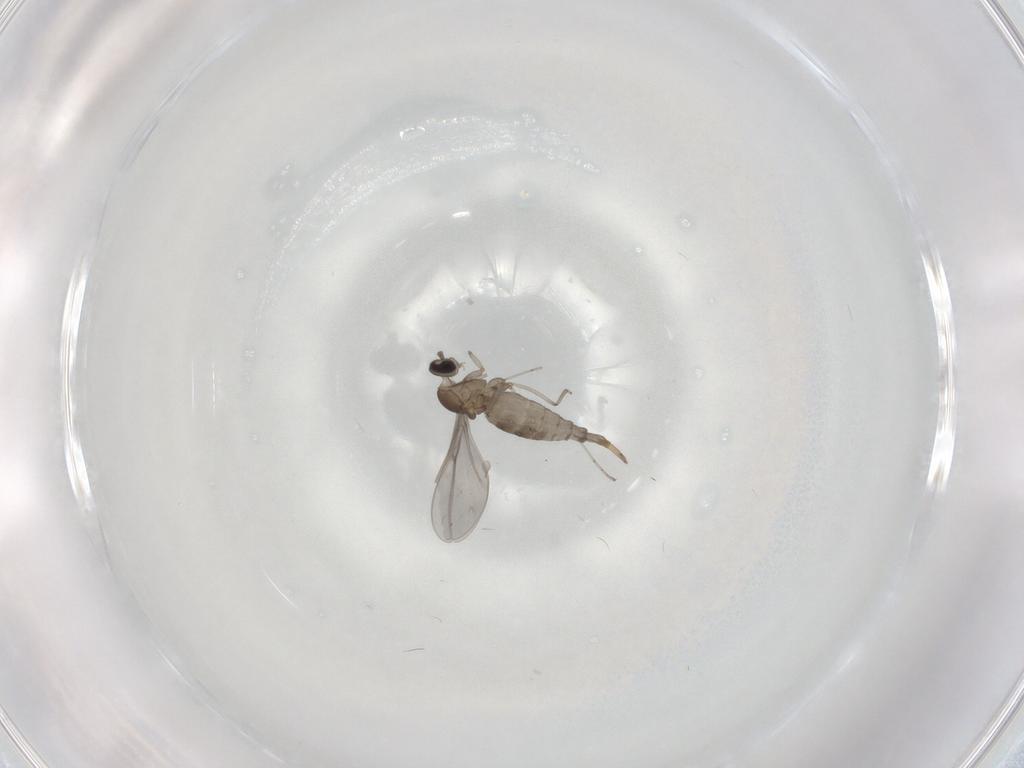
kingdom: Animalia
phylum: Arthropoda
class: Insecta
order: Diptera
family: Cecidomyiidae
